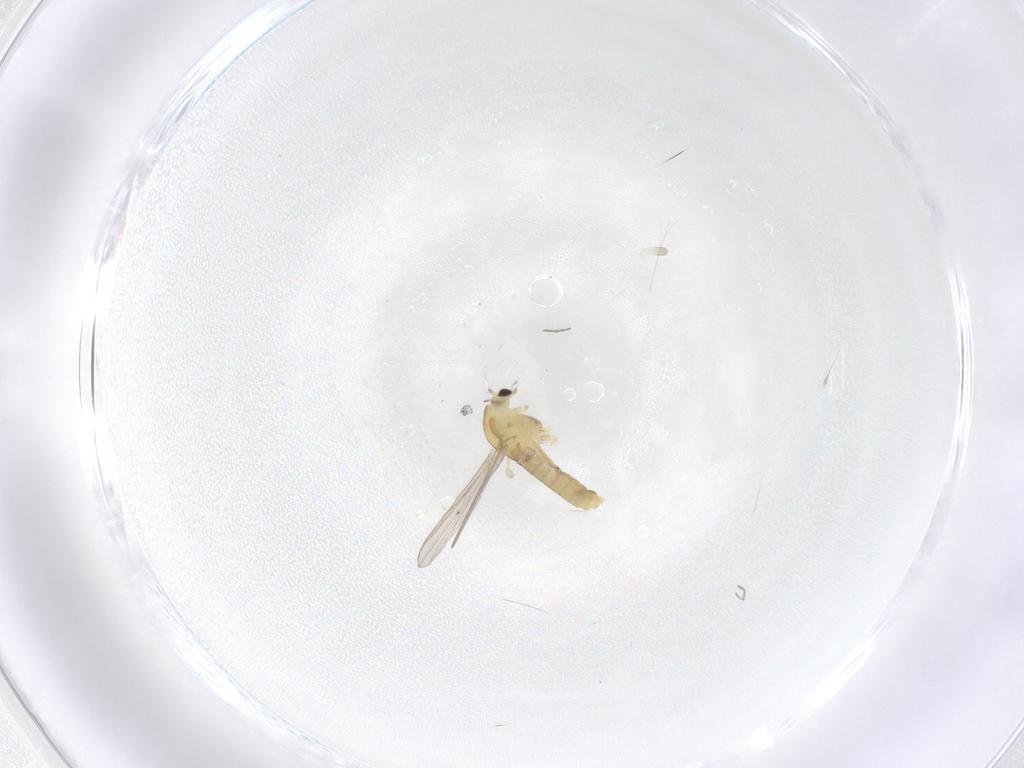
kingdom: Animalia
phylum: Arthropoda
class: Insecta
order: Diptera
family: Chironomidae
